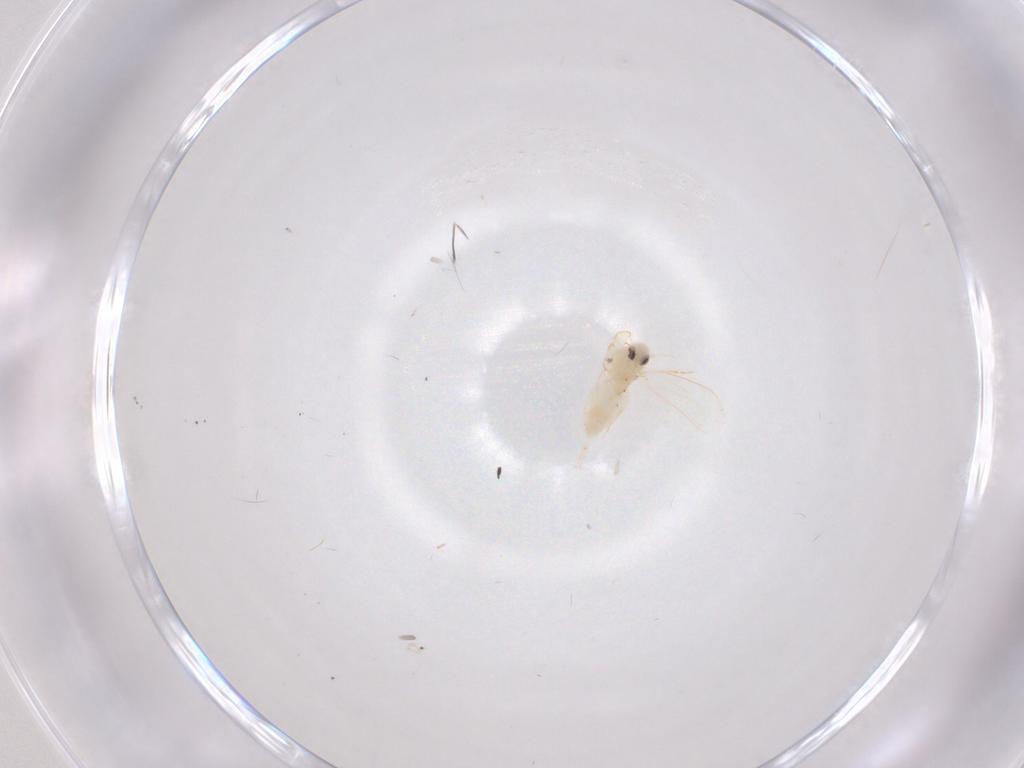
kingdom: Animalia
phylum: Arthropoda
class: Insecta
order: Hemiptera
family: Aleyrodidae
